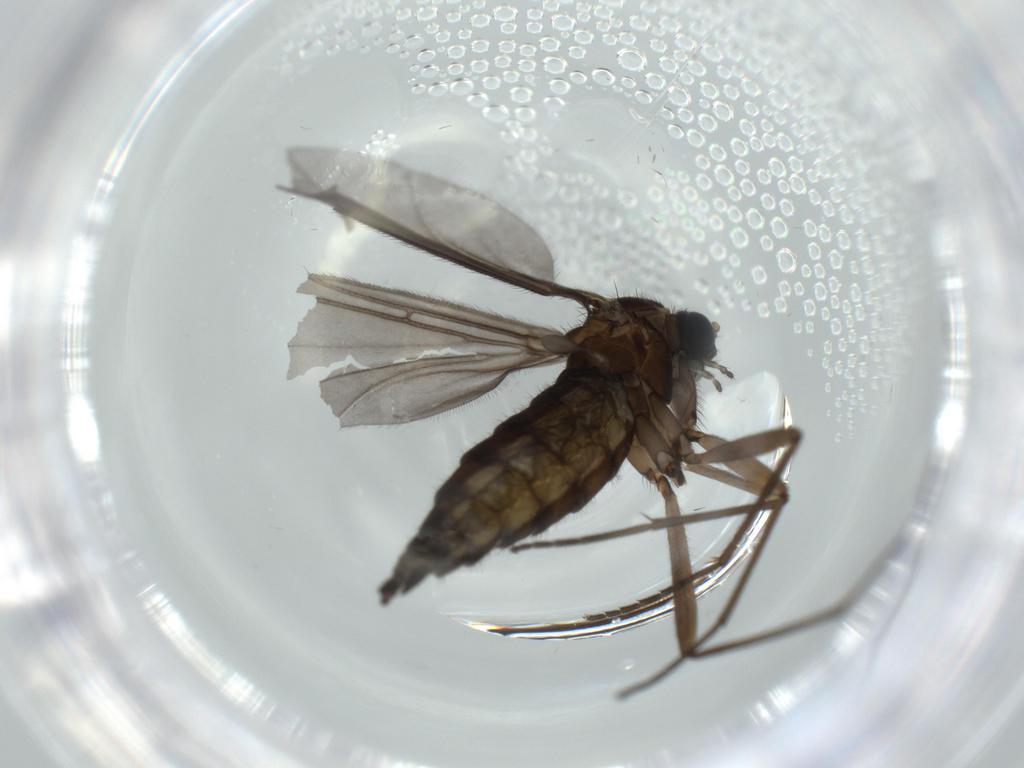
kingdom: Animalia
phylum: Arthropoda
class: Insecta
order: Diptera
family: Sciaridae
